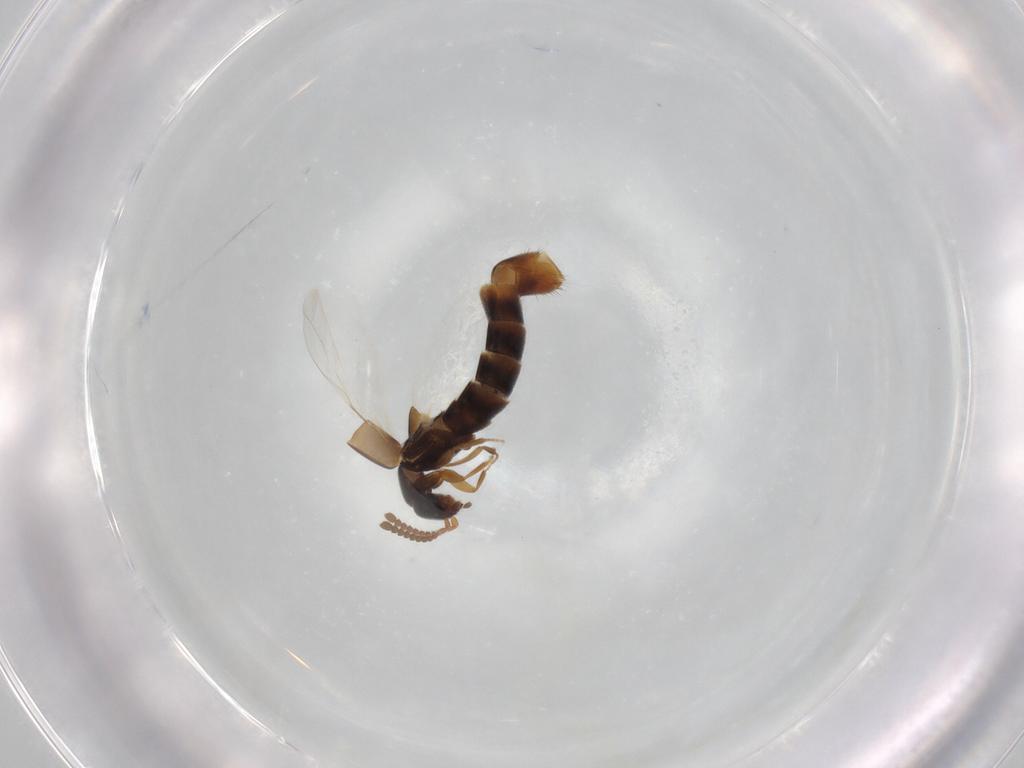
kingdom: Animalia
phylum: Arthropoda
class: Insecta
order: Coleoptera
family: Staphylinidae
